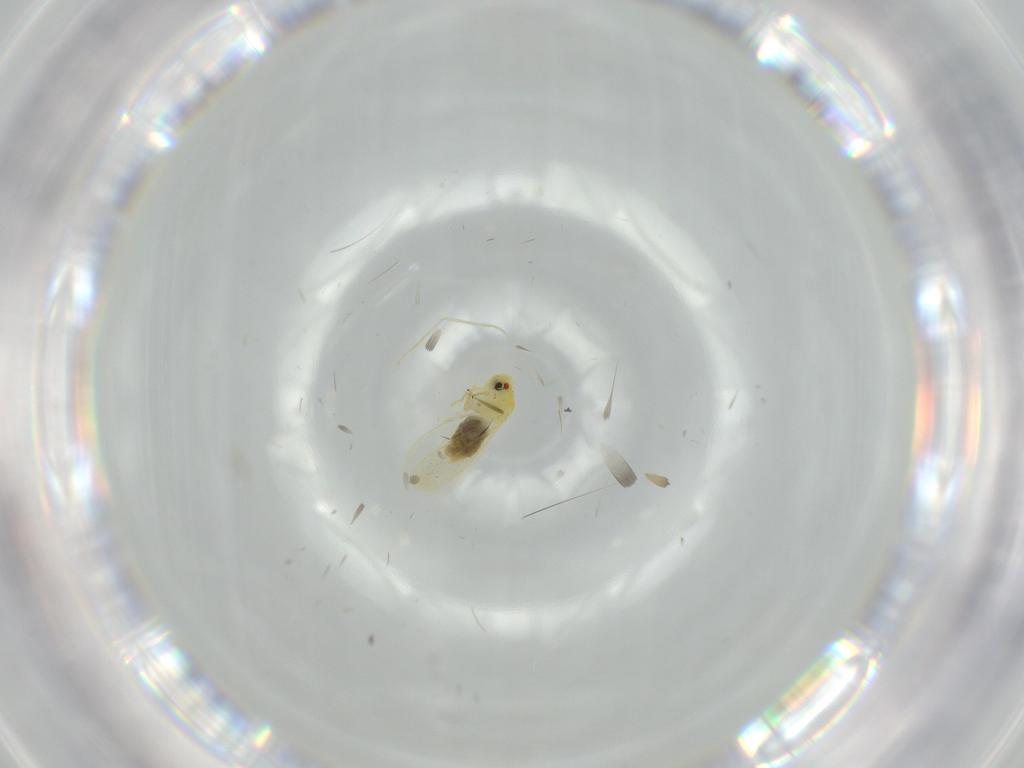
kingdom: Animalia
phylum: Arthropoda
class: Insecta
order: Hemiptera
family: Aleyrodidae
